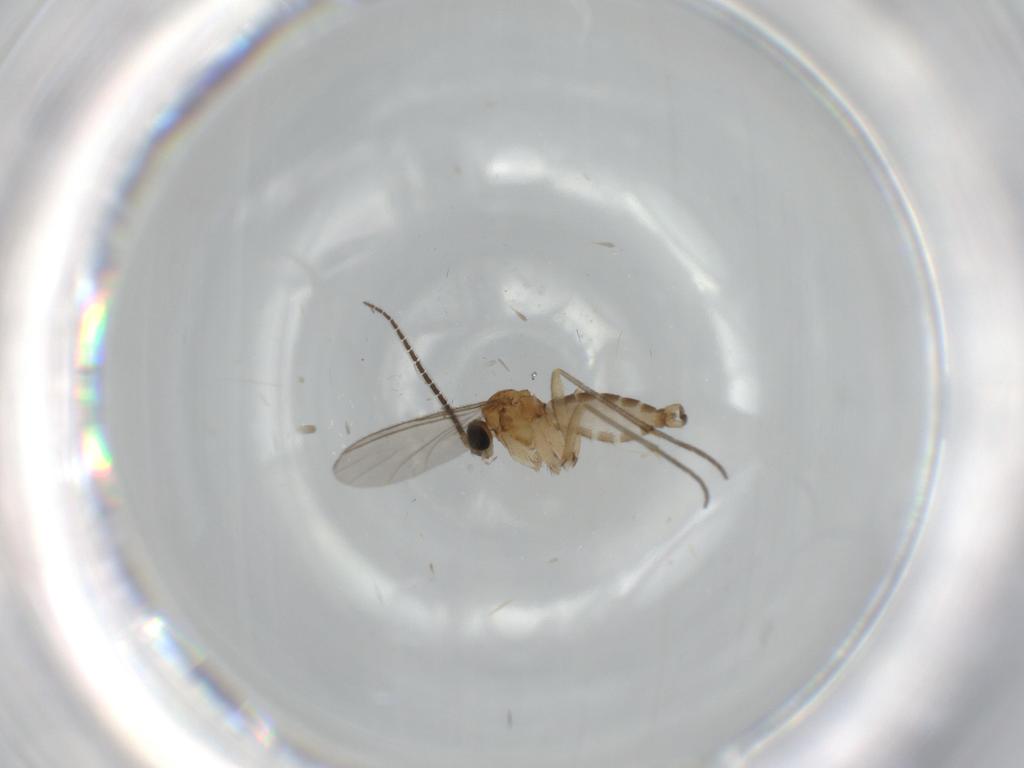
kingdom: Animalia
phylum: Arthropoda
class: Insecta
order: Diptera
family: Sciaridae
